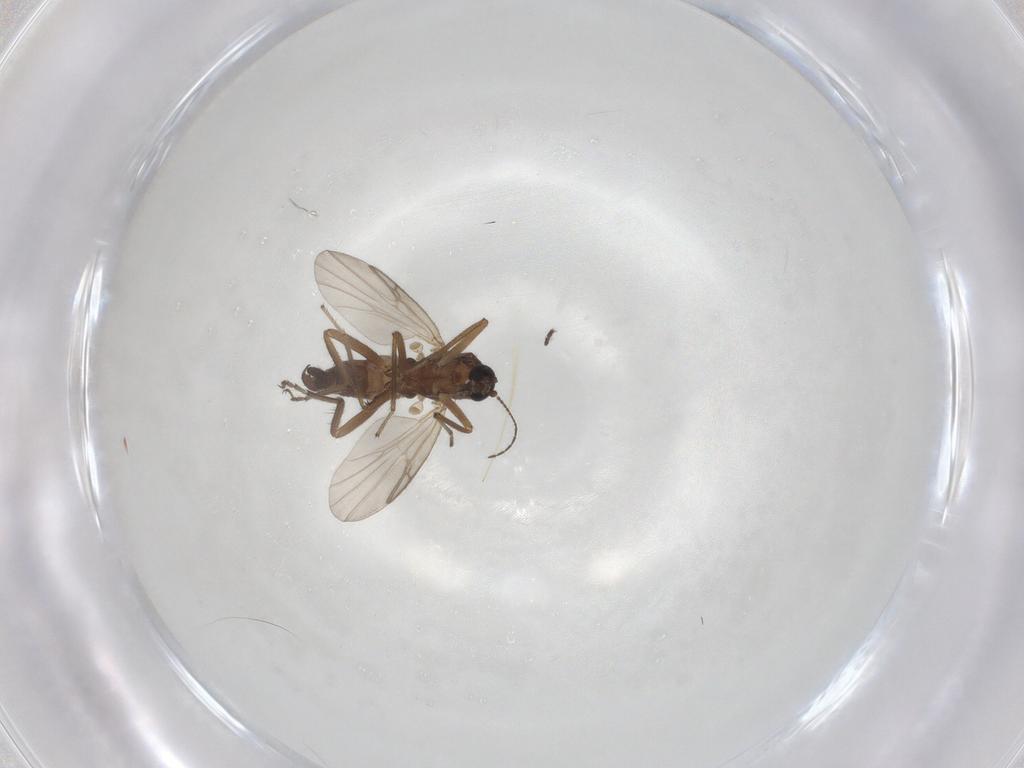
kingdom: Animalia
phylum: Arthropoda
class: Insecta
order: Diptera
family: Ceratopogonidae
